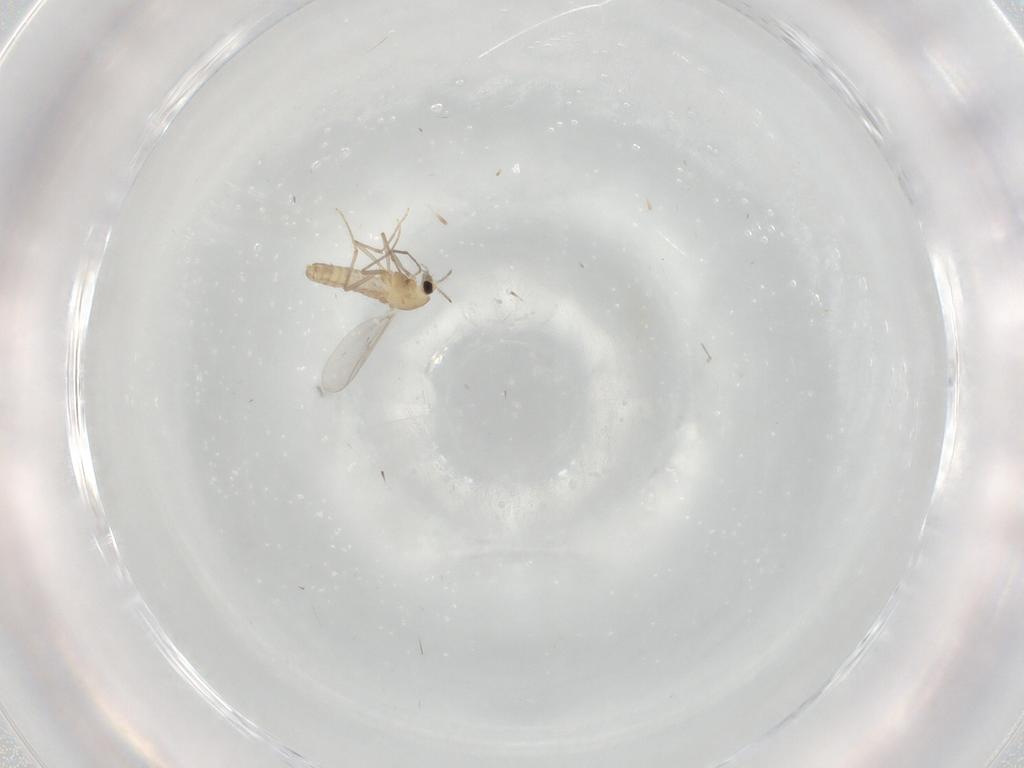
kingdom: Animalia
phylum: Arthropoda
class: Insecta
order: Diptera
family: Chironomidae
